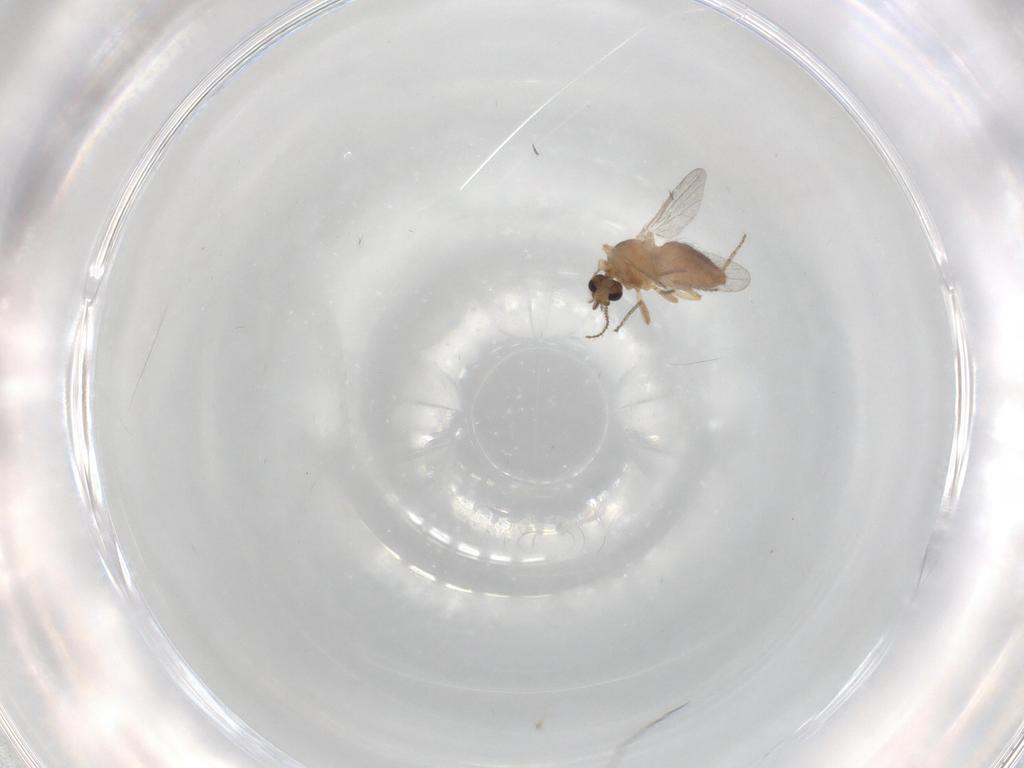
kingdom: Animalia
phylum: Arthropoda
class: Insecta
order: Diptera
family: Ceratopogonidae
